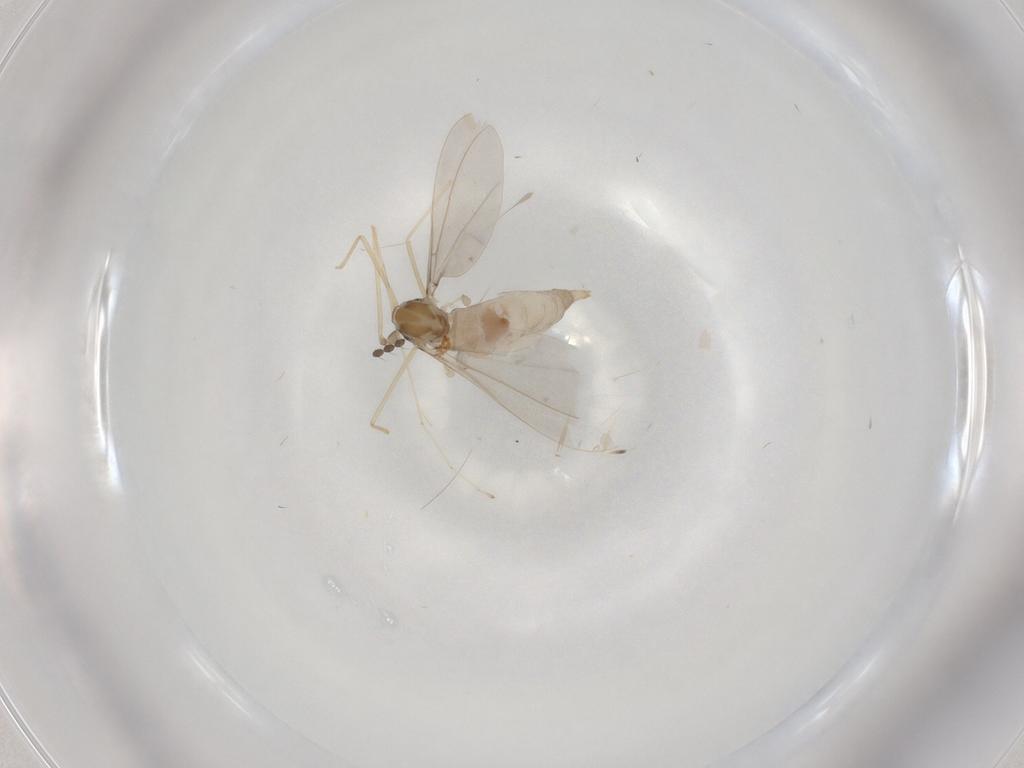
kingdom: Animalia
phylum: Arthropoda
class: Insecta
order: Diptera
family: Cecidomyiidae
